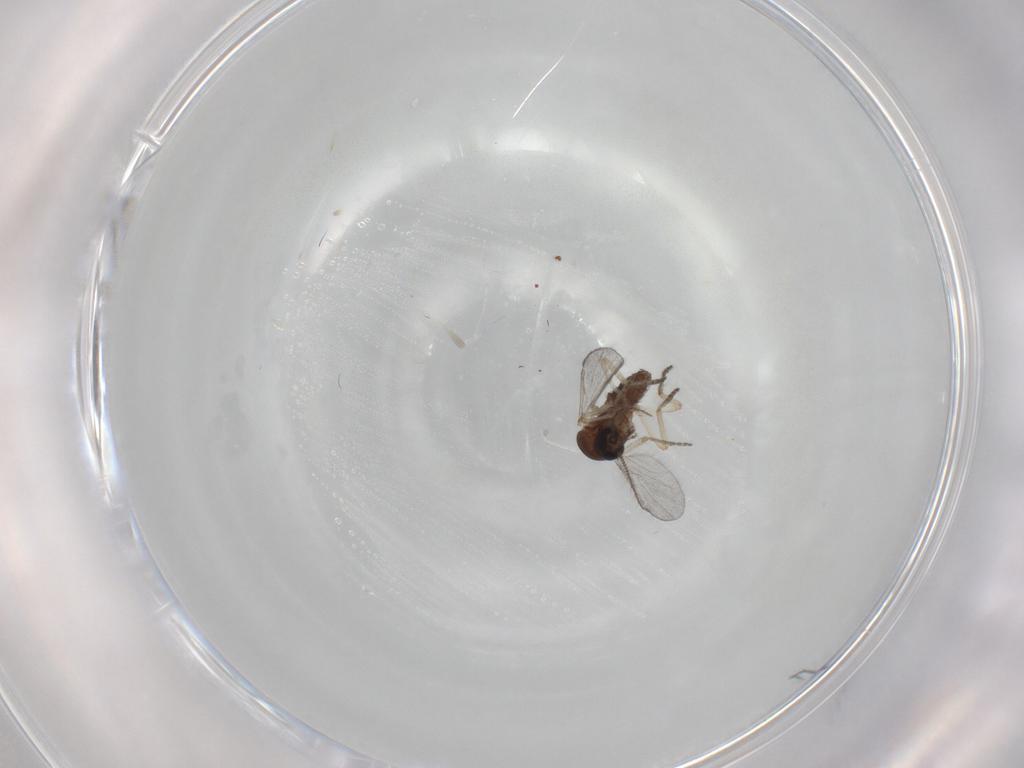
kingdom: Animalia
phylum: Arthropoda
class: Insecta
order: Diptera
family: Ceratopogonidae
